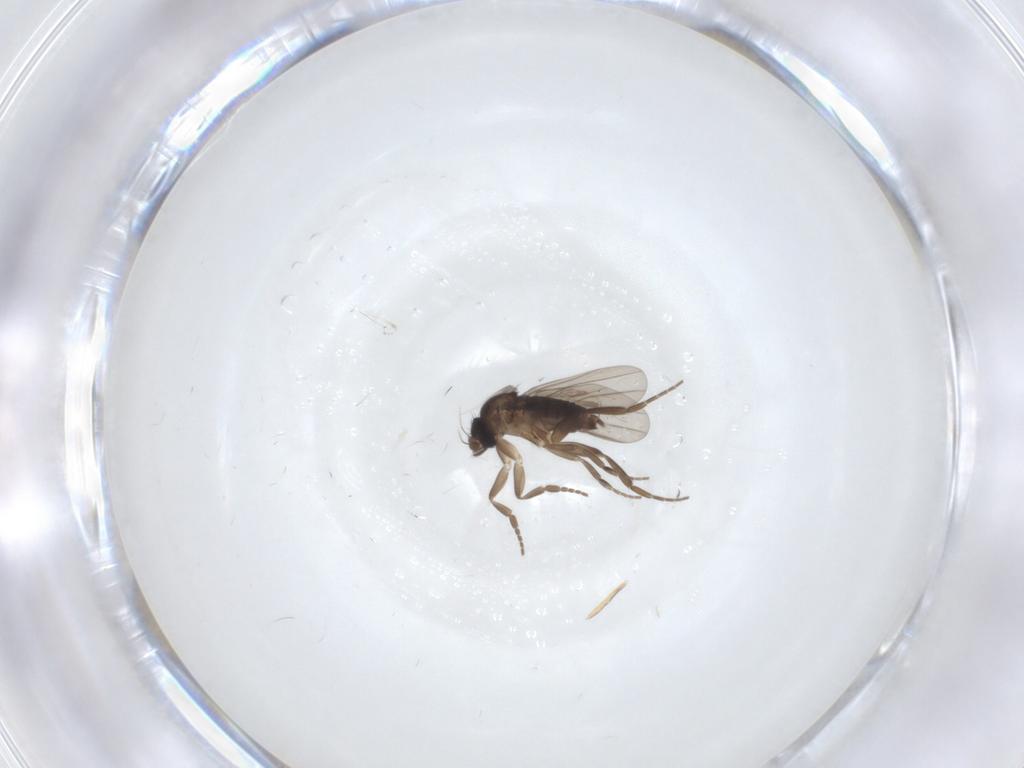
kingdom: Animalia
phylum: Arthropoda
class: Insecta
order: Diptera
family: Phoridae
